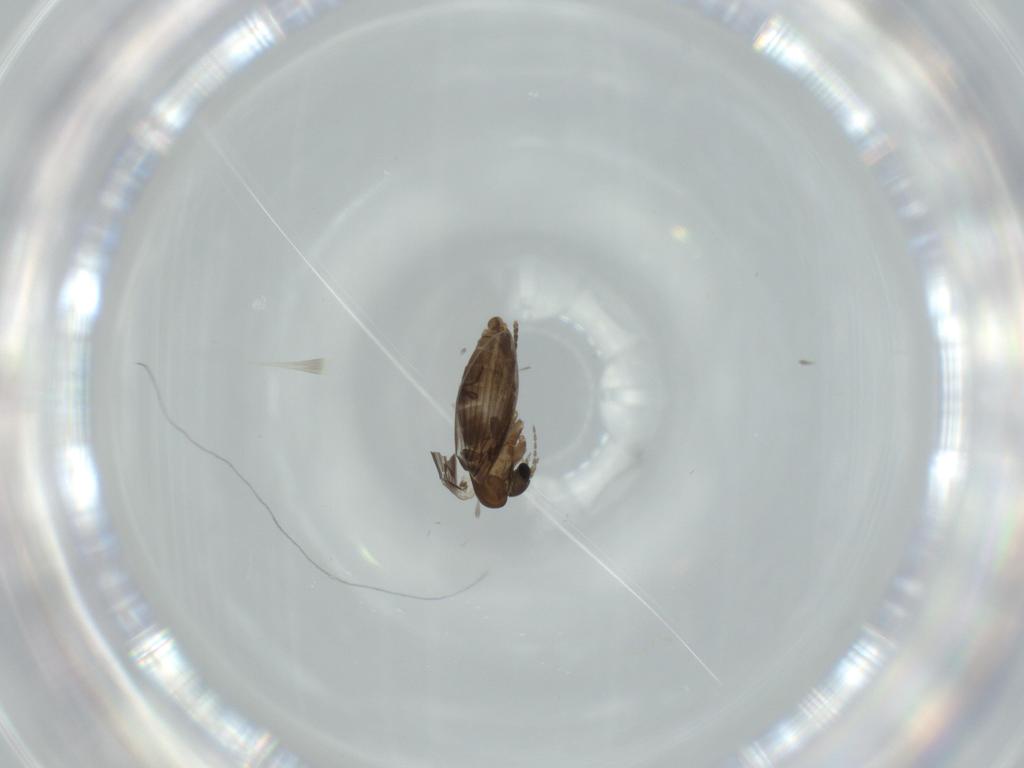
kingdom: Animalia
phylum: Arthropoda
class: Insecta
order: Diptera
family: Psychodidae
